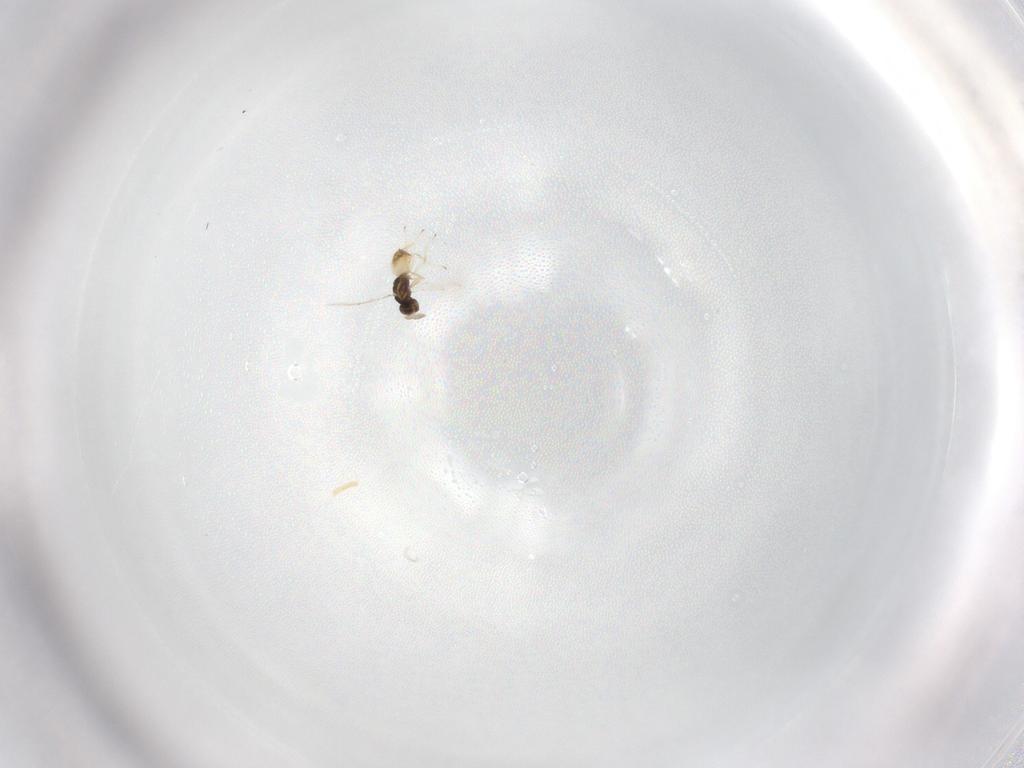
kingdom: Animalia
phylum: Arthropoda
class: Insecta
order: Hymenoptera
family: Eulophidae
